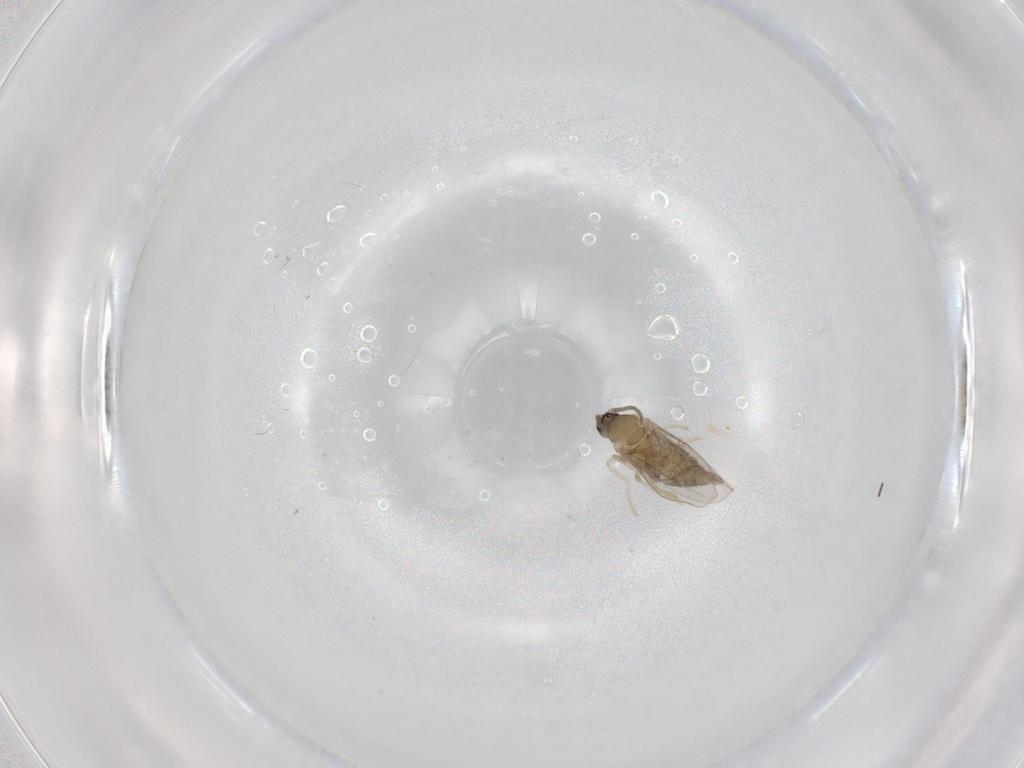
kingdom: Animalia
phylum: Arthropoda
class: Insecta
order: Diptera
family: Cecidomyiidae
